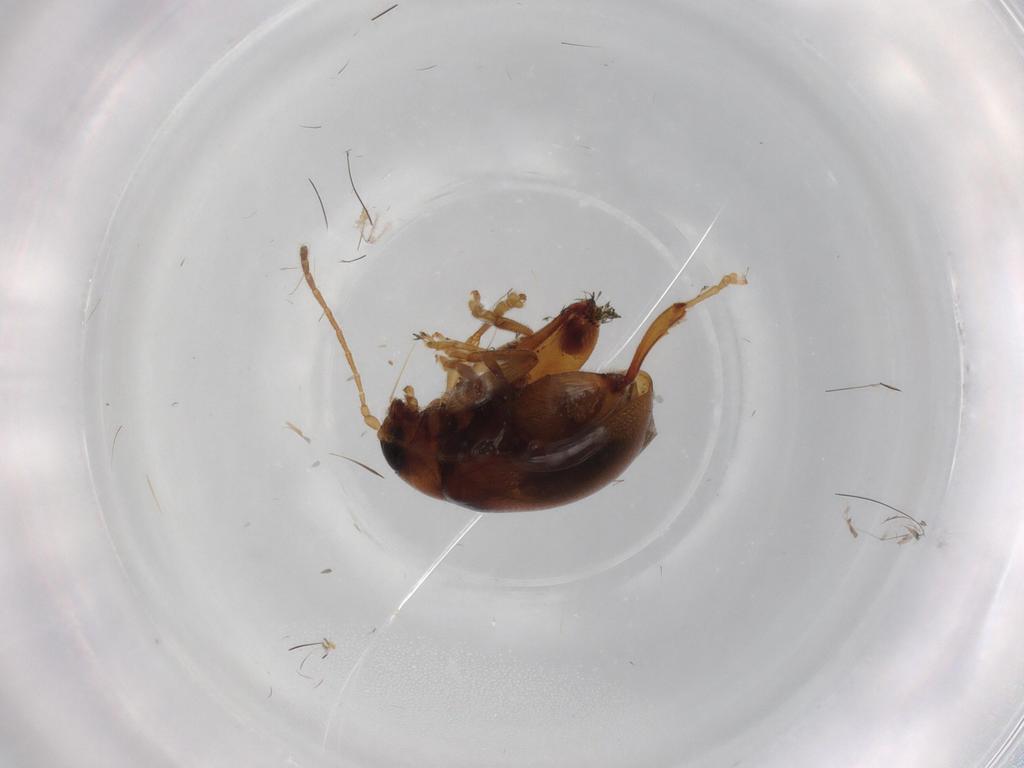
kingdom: Animalia
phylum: Arthropoda
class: Insecta
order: Coleoptera
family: Chrysomelidae
